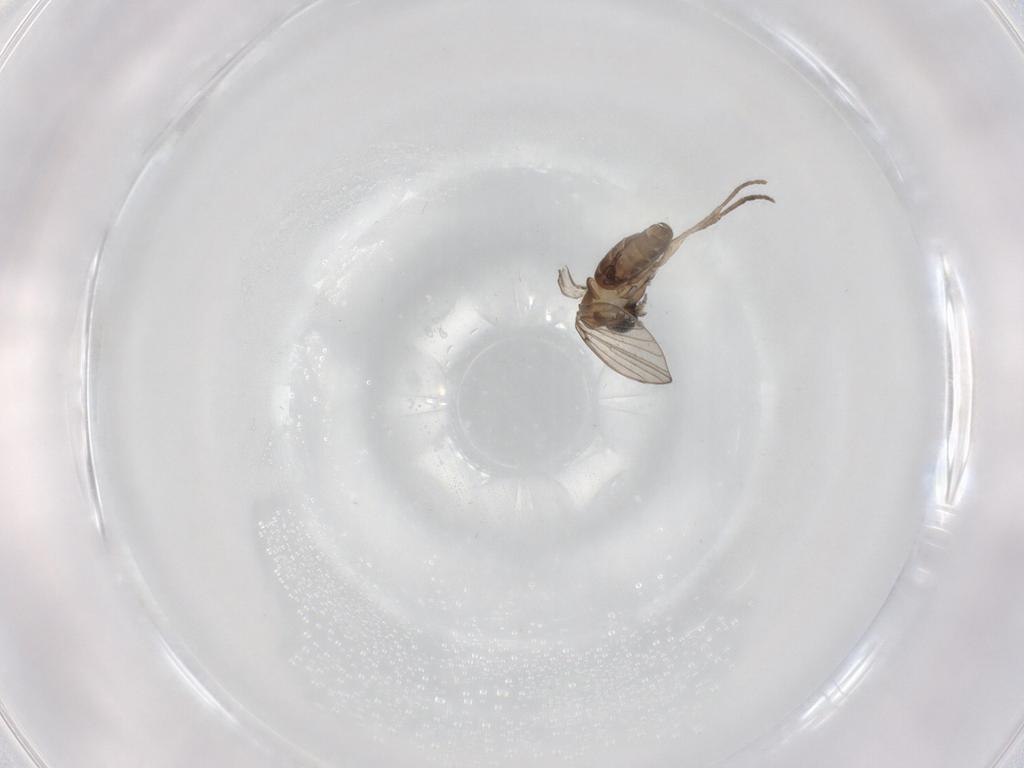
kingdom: Animalia
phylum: Arthropoda
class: Insecta
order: Diptera
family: Psychodidae
